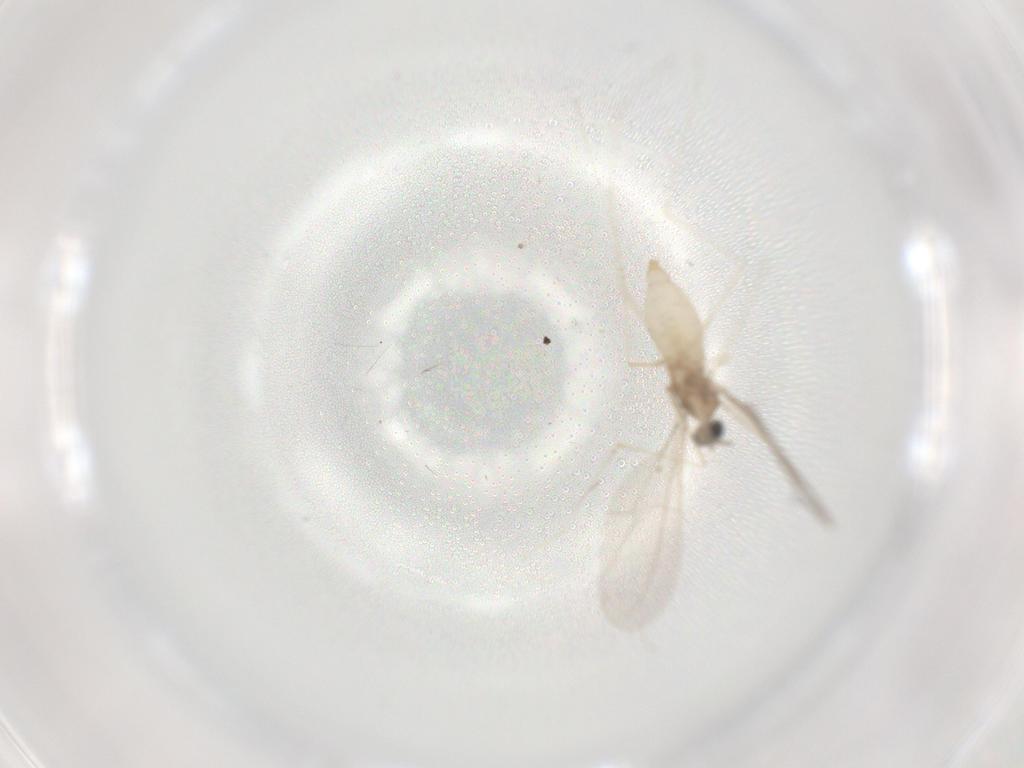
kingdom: Animalia
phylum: Arthropoda
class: Insecta
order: Diptera
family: Cecidomyiidae
